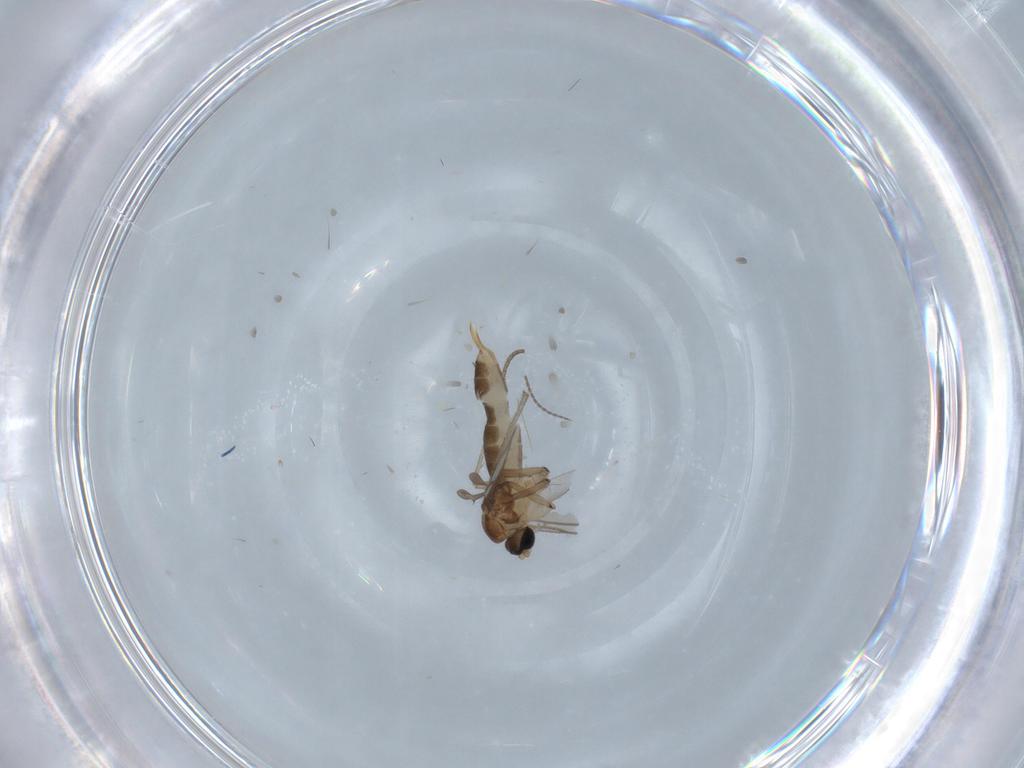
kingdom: Animalia
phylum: Arthropoda
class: Insecta
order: Diptera
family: Sciaridae
